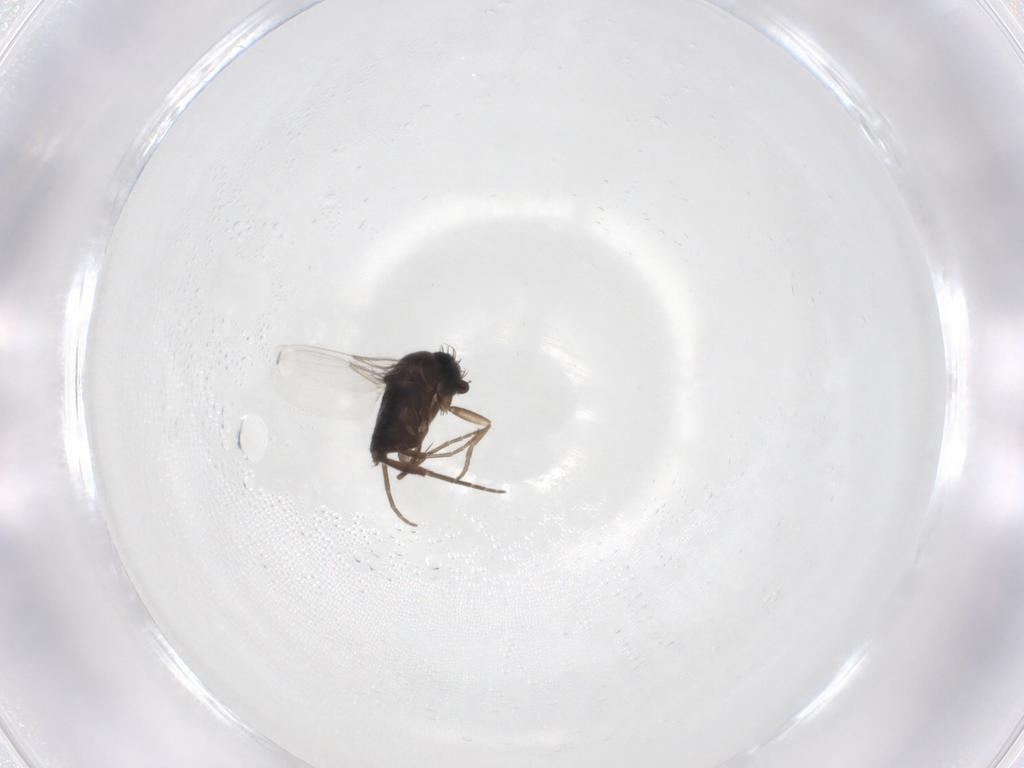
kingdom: Animalia
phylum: Arthropoda
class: Insecta
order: Diptera
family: Phoridae
